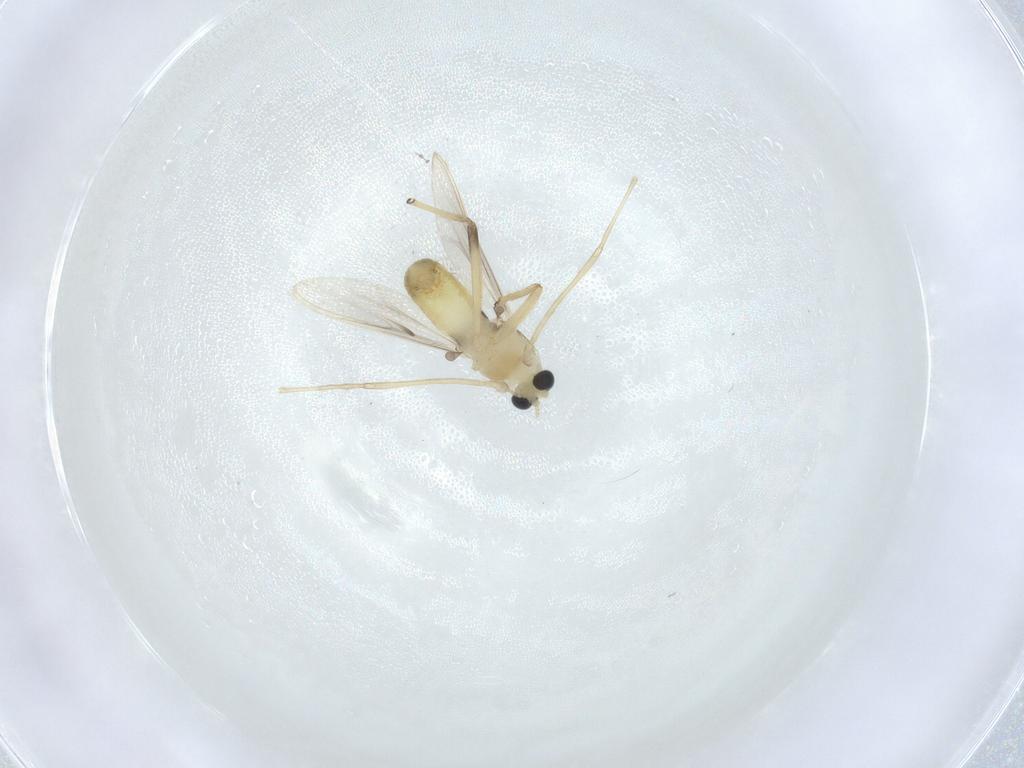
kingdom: Animalia
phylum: Arthropoda
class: Insecta
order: Diptera
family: Chironomidae
